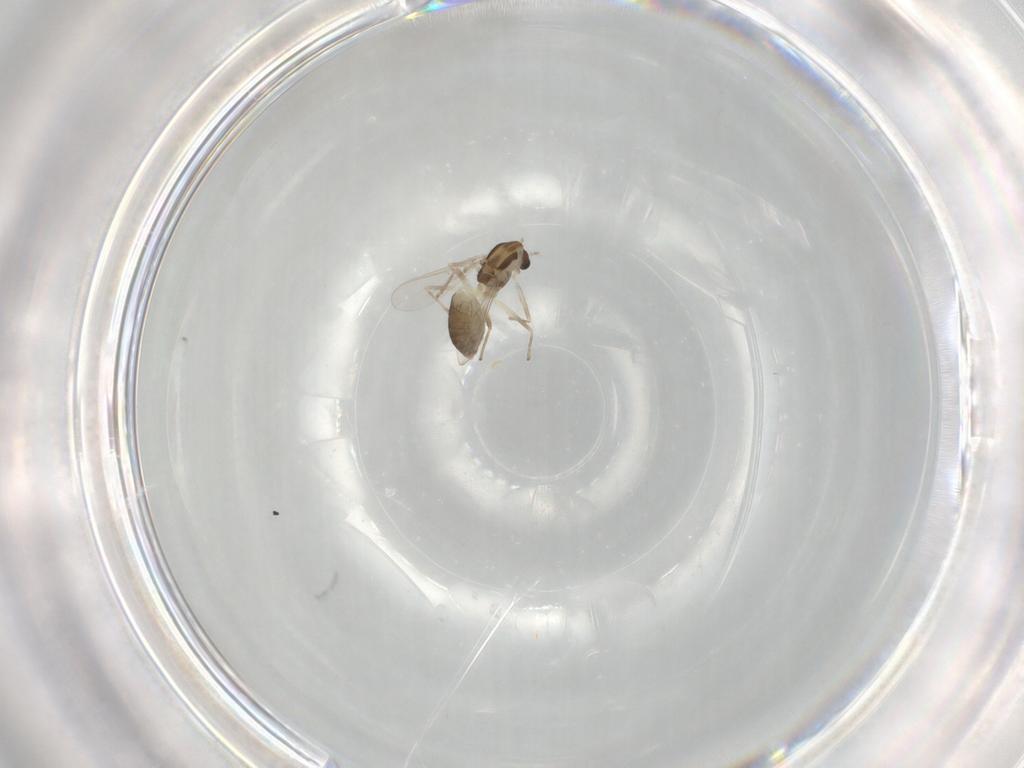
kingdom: Animalia
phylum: Arthropoda
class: Insecta
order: Diptera
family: Chironomidae
